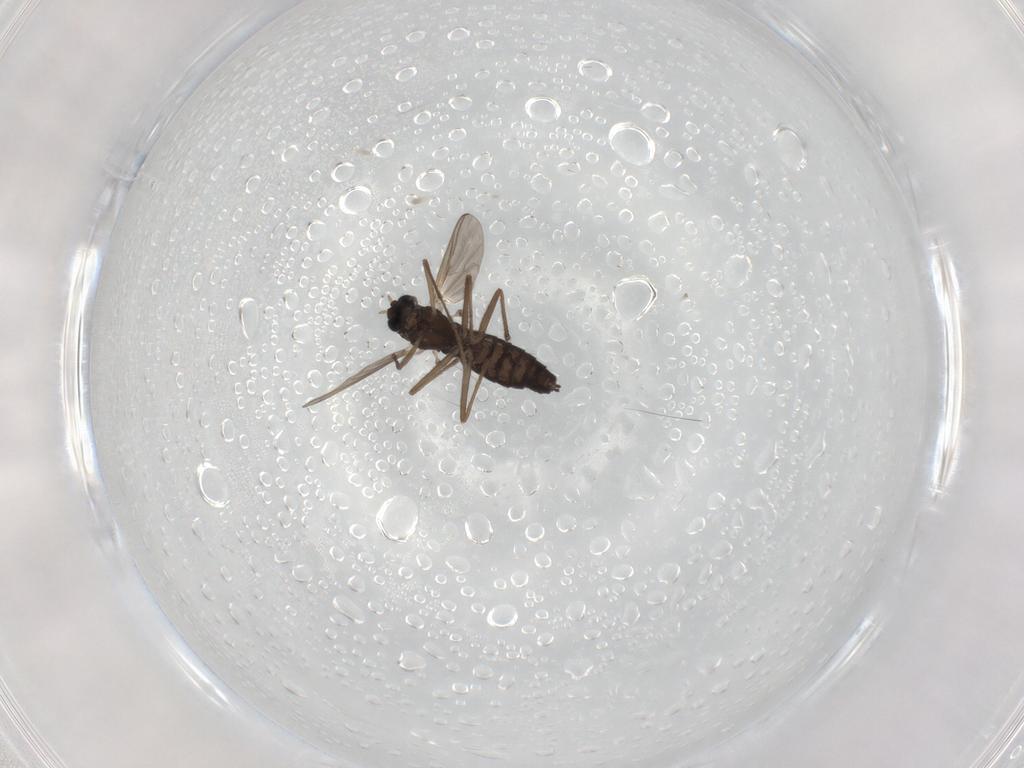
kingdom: Animalia
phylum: Arthropoda
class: Insecta
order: Diptera
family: Chironomidae
